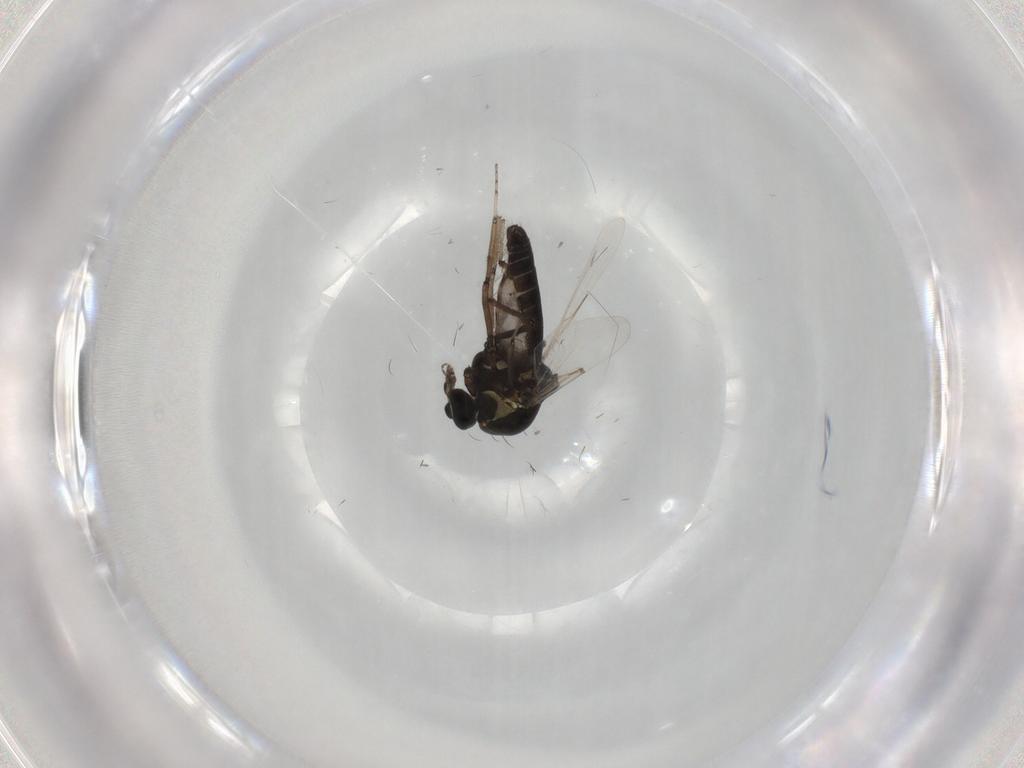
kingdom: Animalia
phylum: Arthropoda
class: Insecta
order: Diptera
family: Ceratopogonidae
